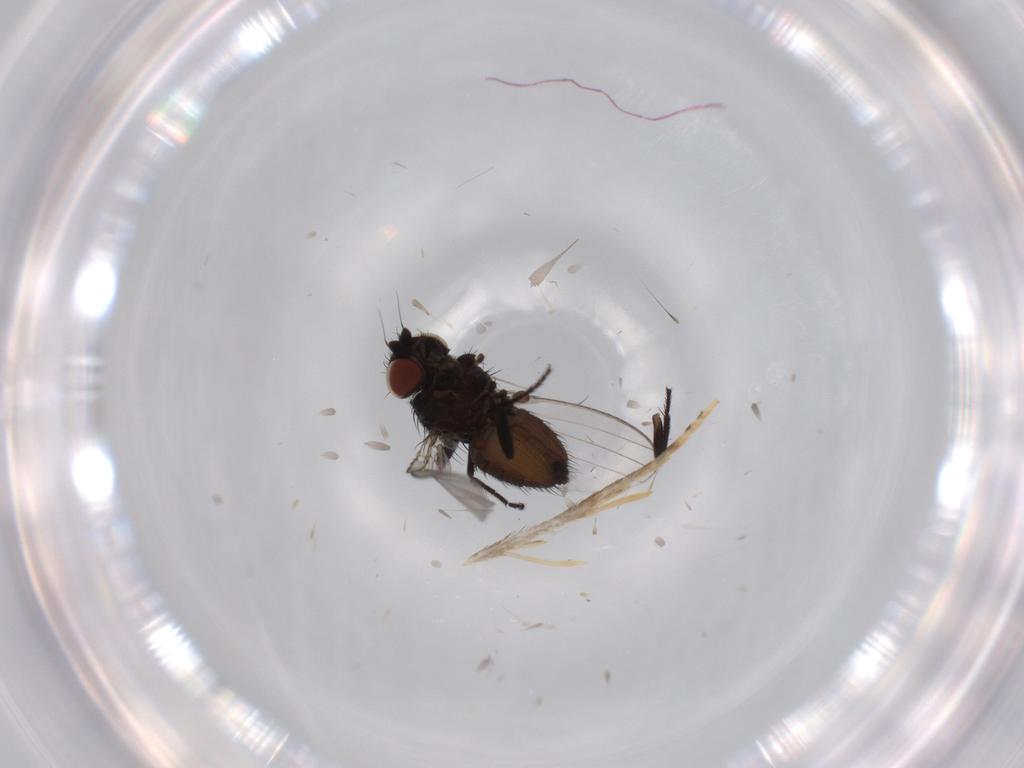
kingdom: Animalia
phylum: Arthropoda
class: Insecta
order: Diptera
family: Milichiidae
